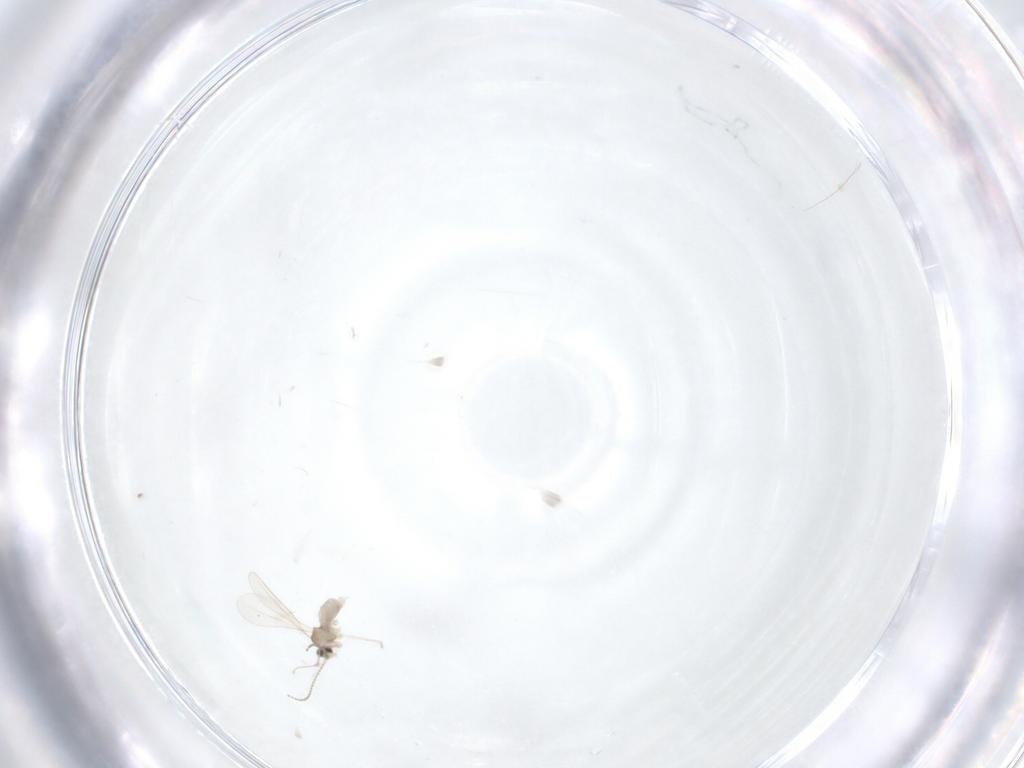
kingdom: Animalia
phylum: Arthropoda
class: Insecta
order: Diptera
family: Cecidomyiidae
